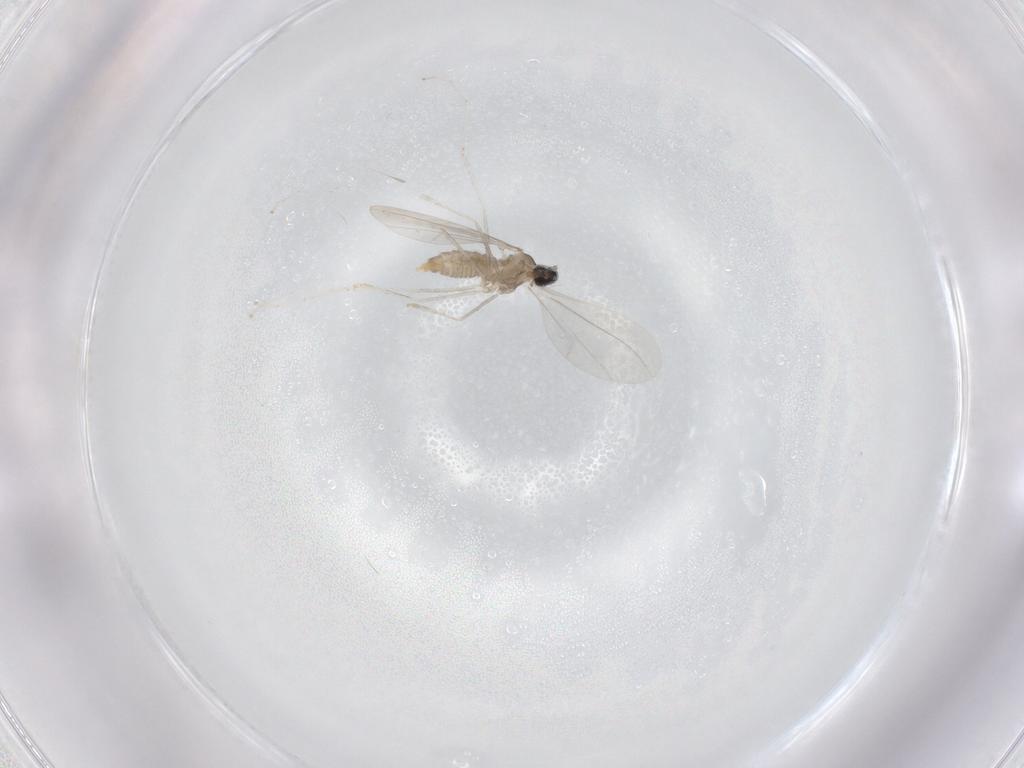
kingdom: Animalia
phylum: Arthropoda
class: Insecta
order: Diptera
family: Cecidomyiidae
